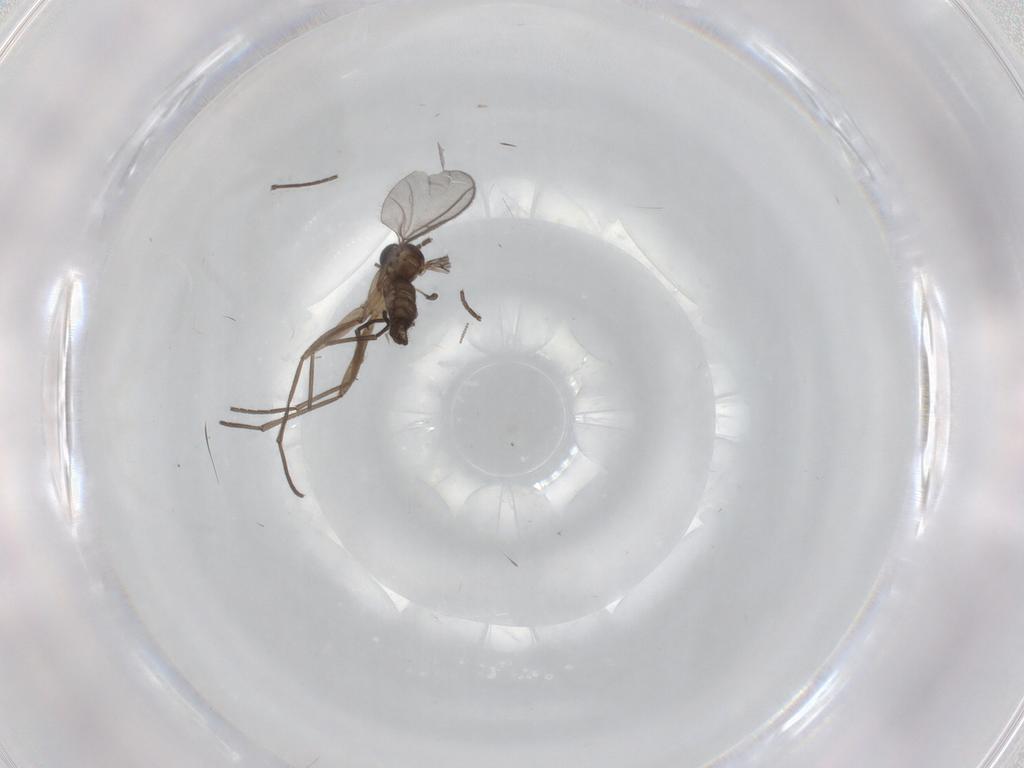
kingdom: Animalia
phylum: Arthropoda
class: Insecta
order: Diptera
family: Sciaridae
